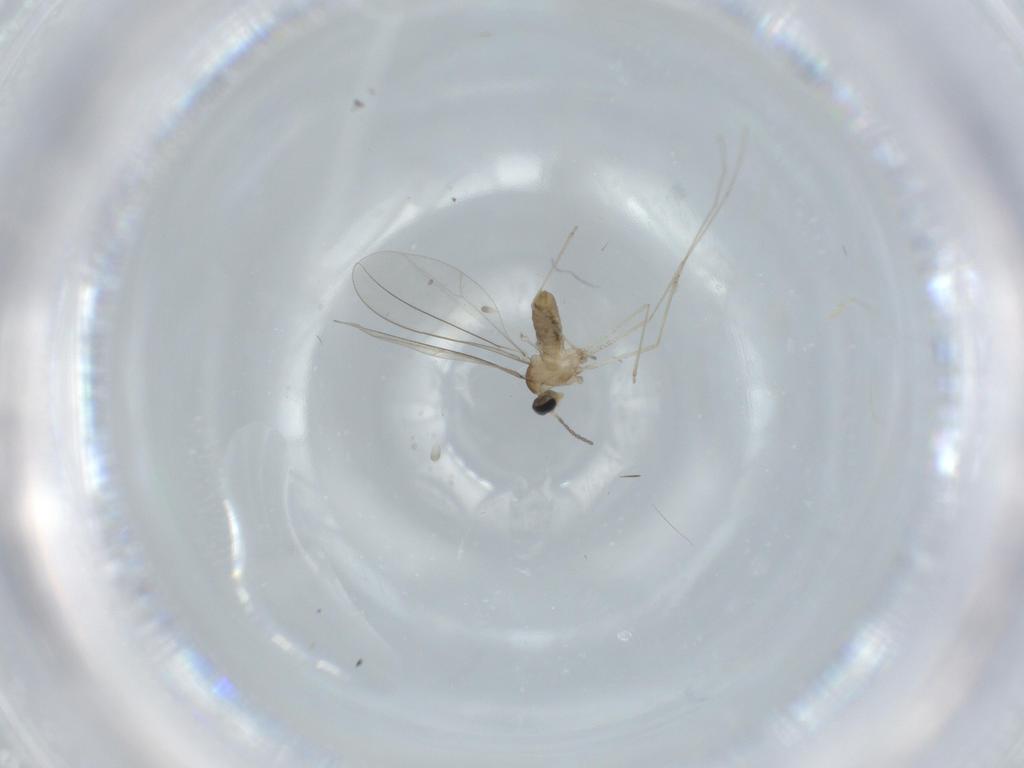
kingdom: Animalia
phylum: Arthropoda
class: Insecta
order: Diptera
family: Cecidomyiidae
